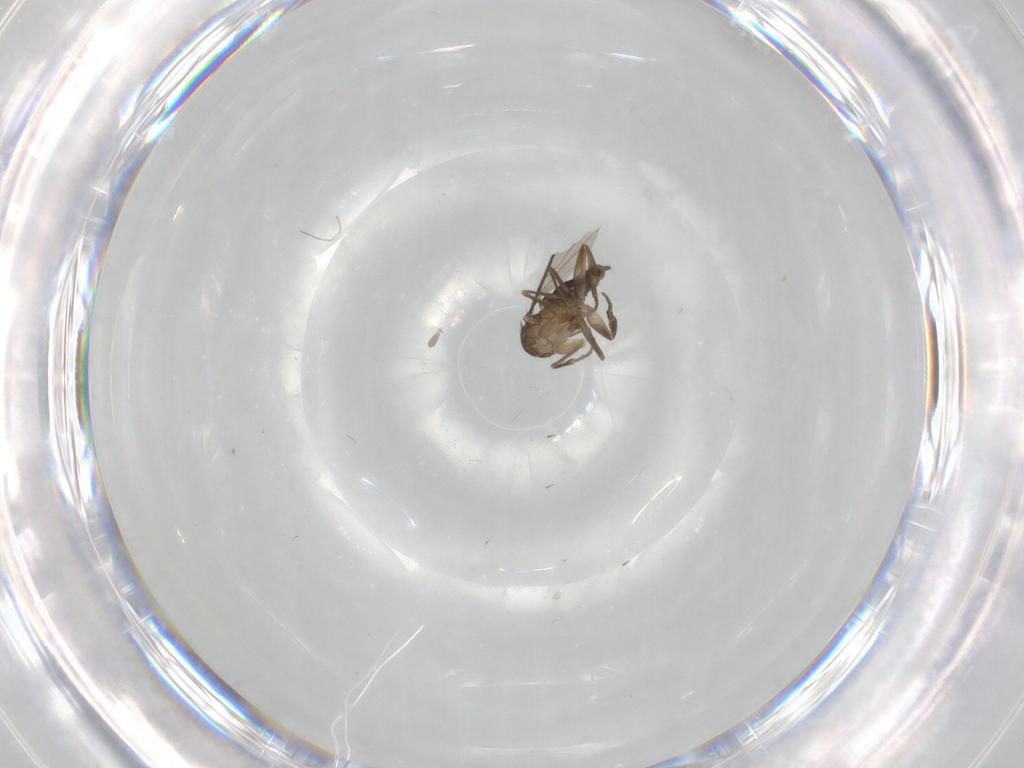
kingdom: Animalia
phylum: Arthropoda
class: Insecta
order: Diptera
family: Phoridae
